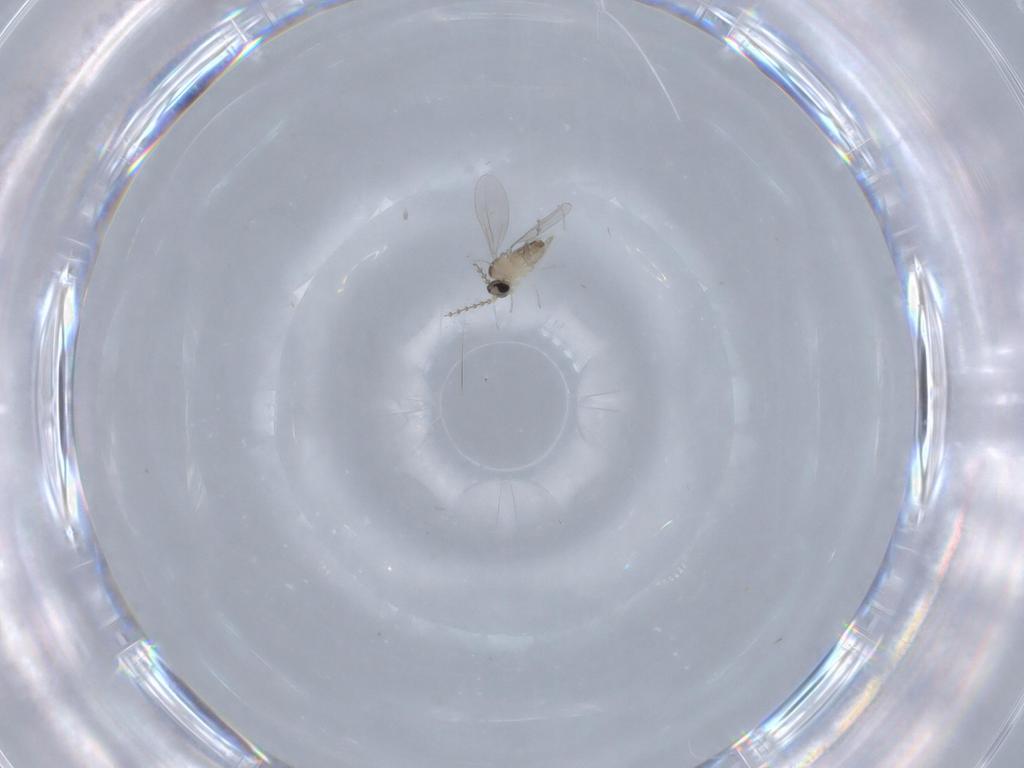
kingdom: Animalia
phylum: Arthropoda
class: Insecta
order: Diptera
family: Cecidomyiidae
